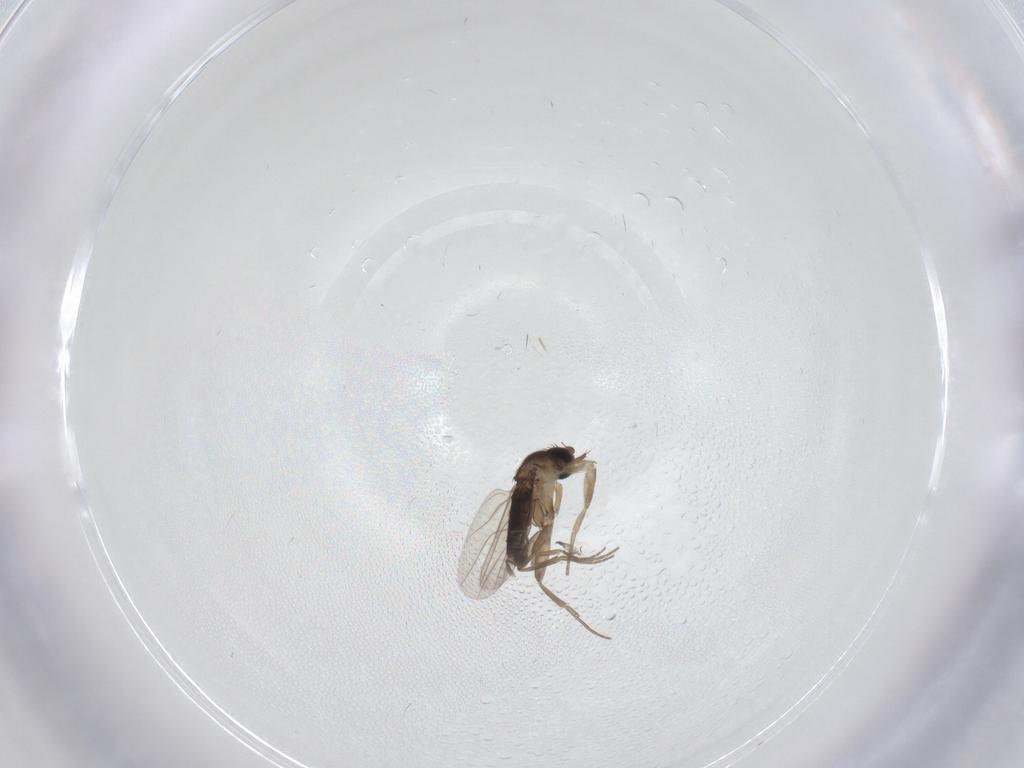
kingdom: Animalia
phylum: Arthropoda
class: Insecta
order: Diptera
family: Phoridae
